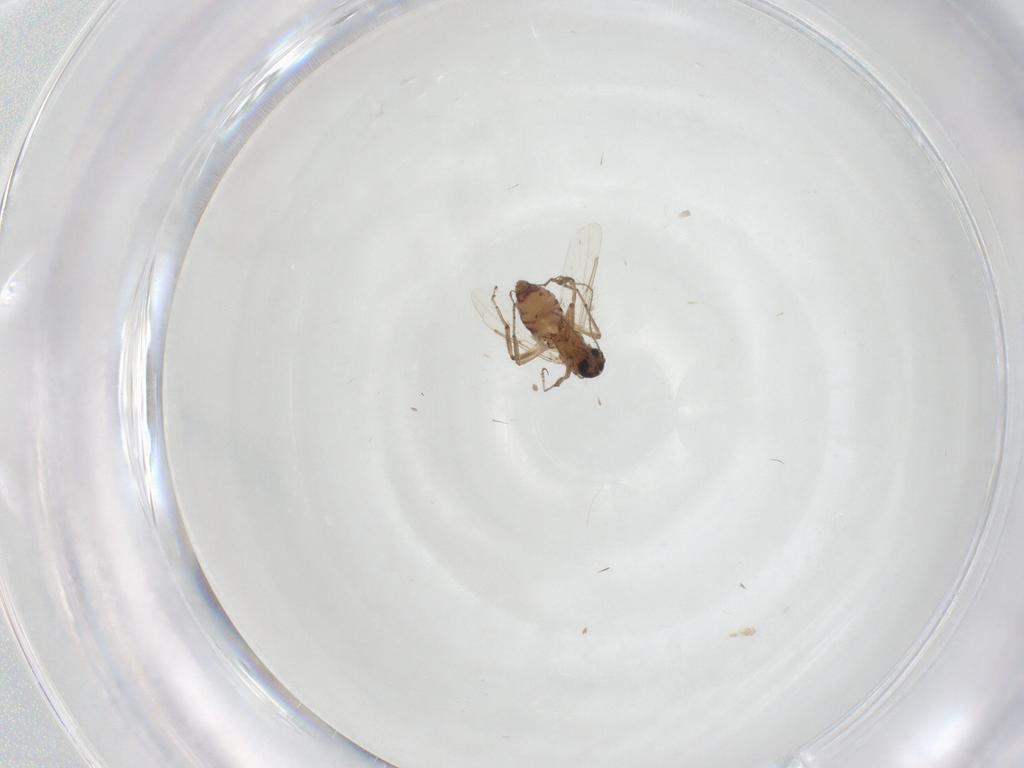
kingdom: Animalia
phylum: Arthropoda
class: Insecta
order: Diptera
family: Ceratopogonidae
